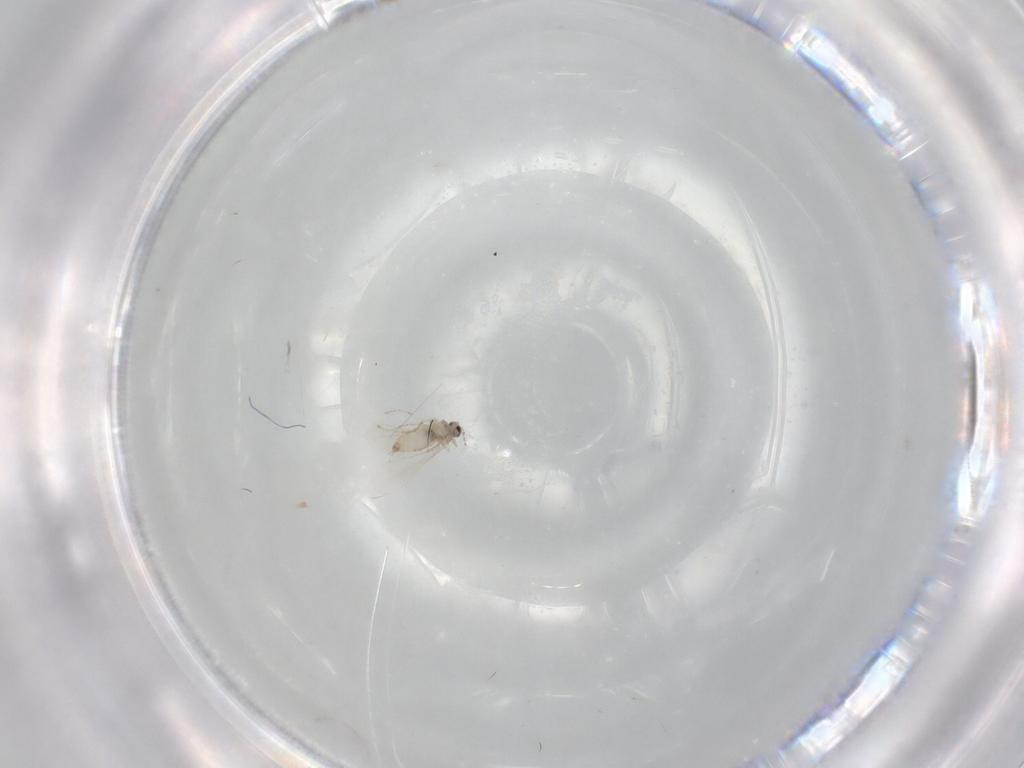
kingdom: Animalia
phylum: Arthropoda
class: Insecta
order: Diptera
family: Cecidomyiidae
